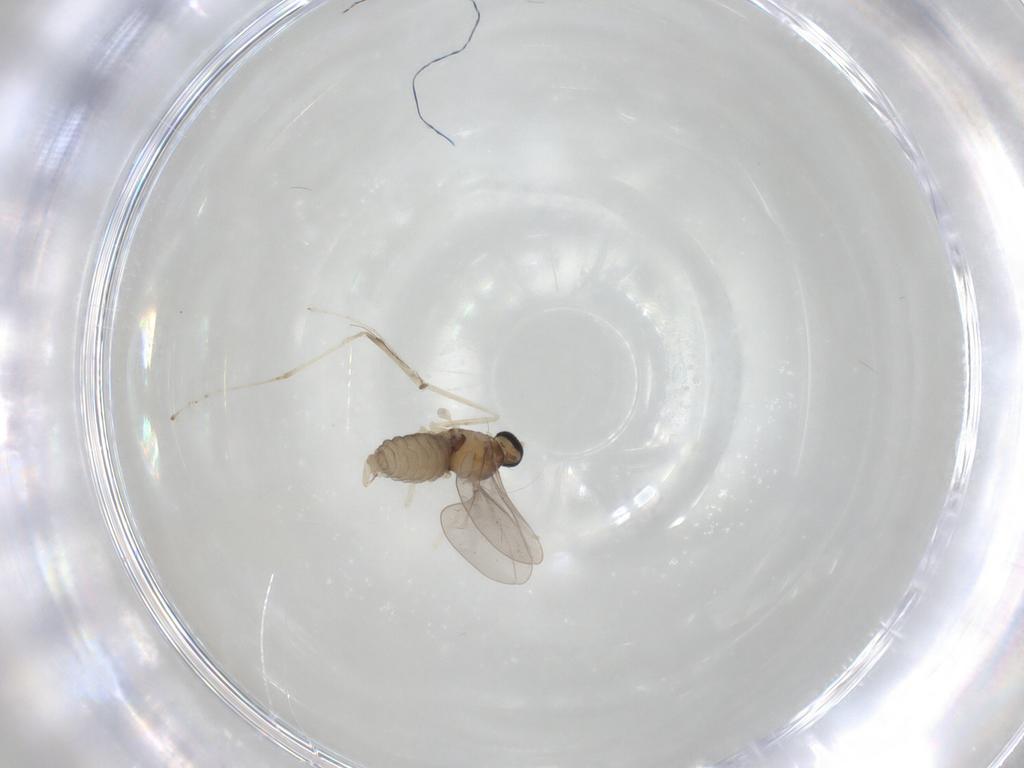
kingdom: Animalia
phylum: Arthropoda
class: Insecta
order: Diptera
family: Cecidomyiidae
